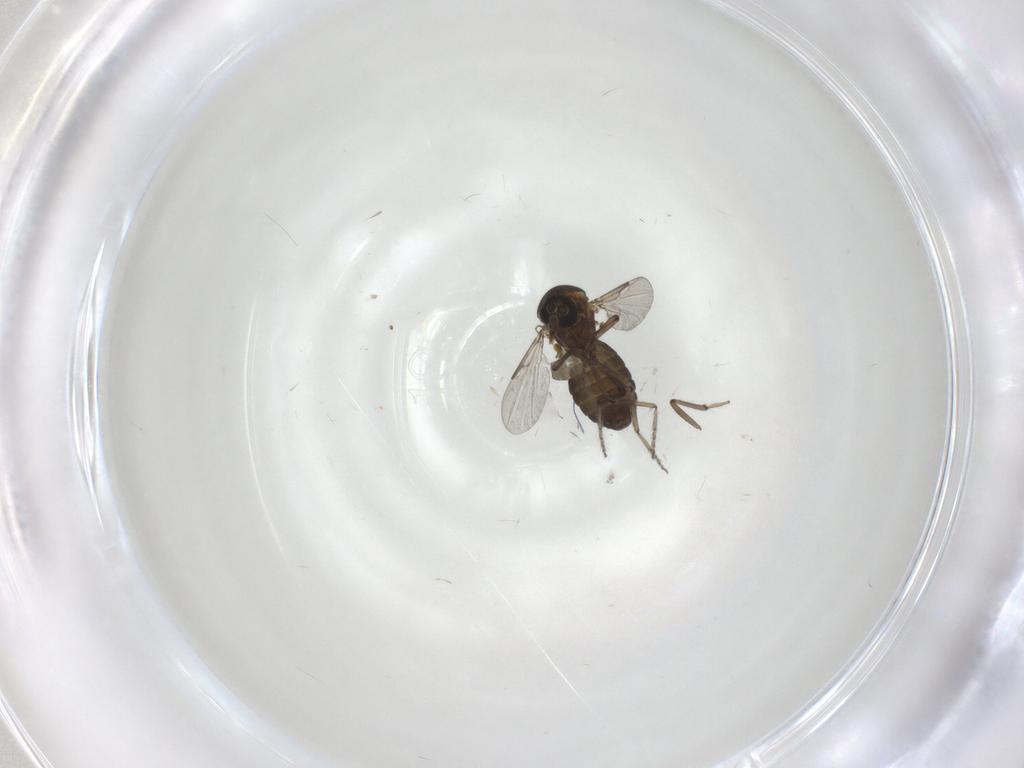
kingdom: Animalia
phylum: Arthropoda
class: Insecta
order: Diptera
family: Ceratopogonidae
